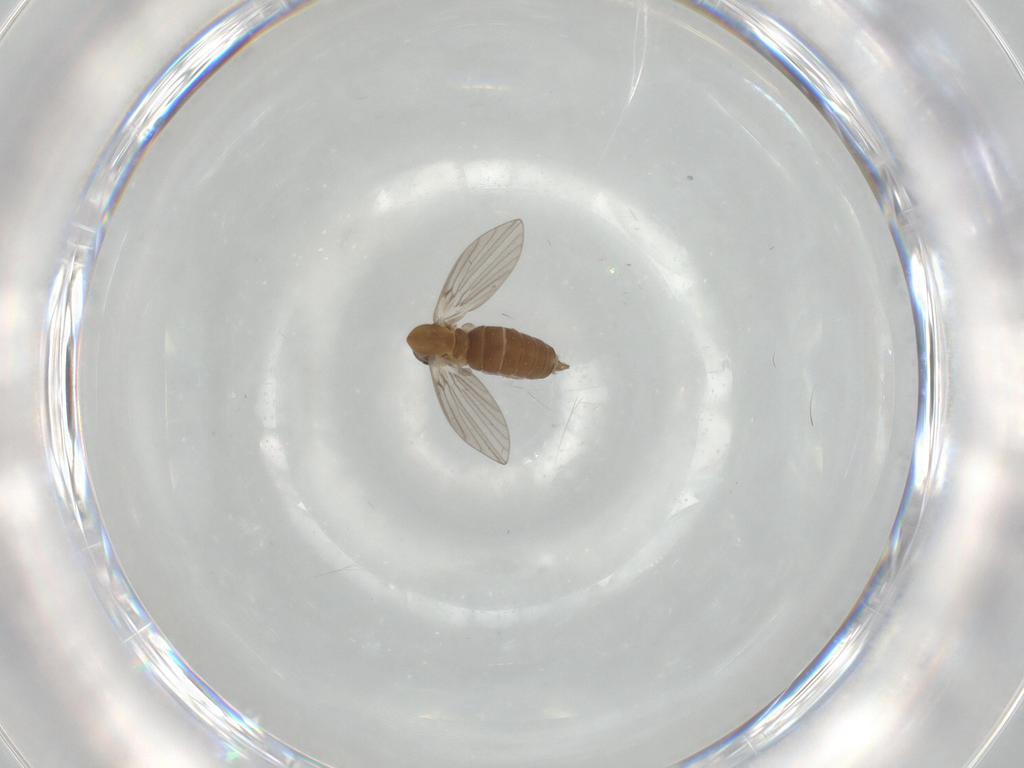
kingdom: Animalia
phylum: Arthropoda
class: Insecta
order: Diptera
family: Psychodidae
